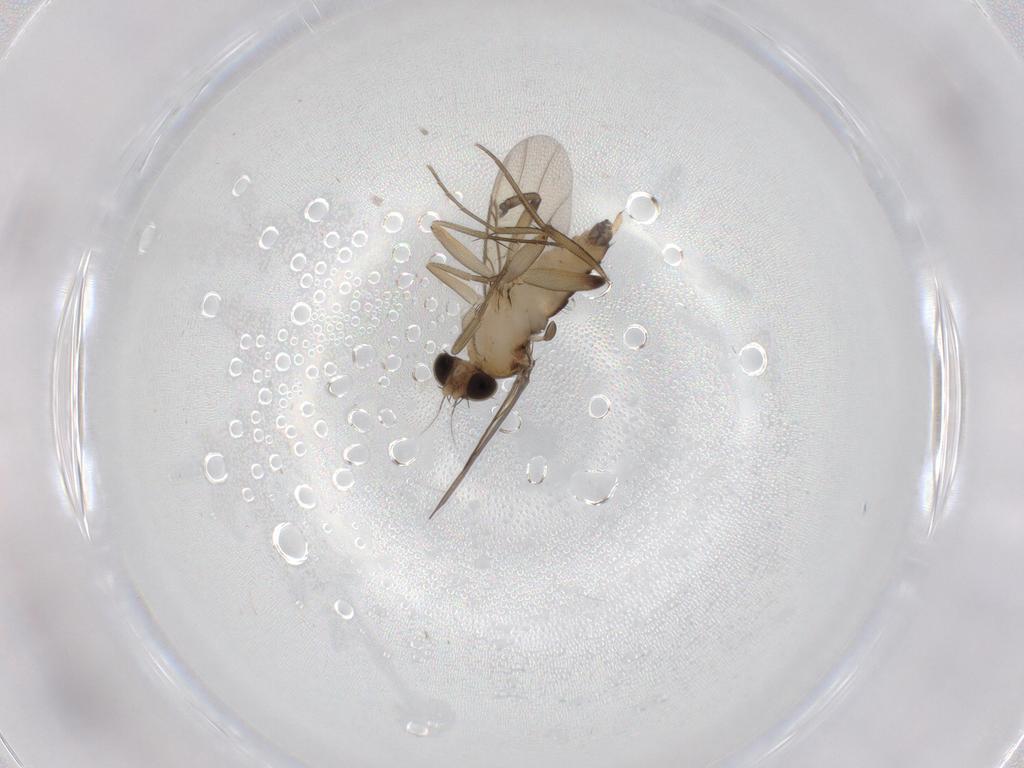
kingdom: Animalia
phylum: Arthropoda
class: Insecta
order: Diptera
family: Phoridae
